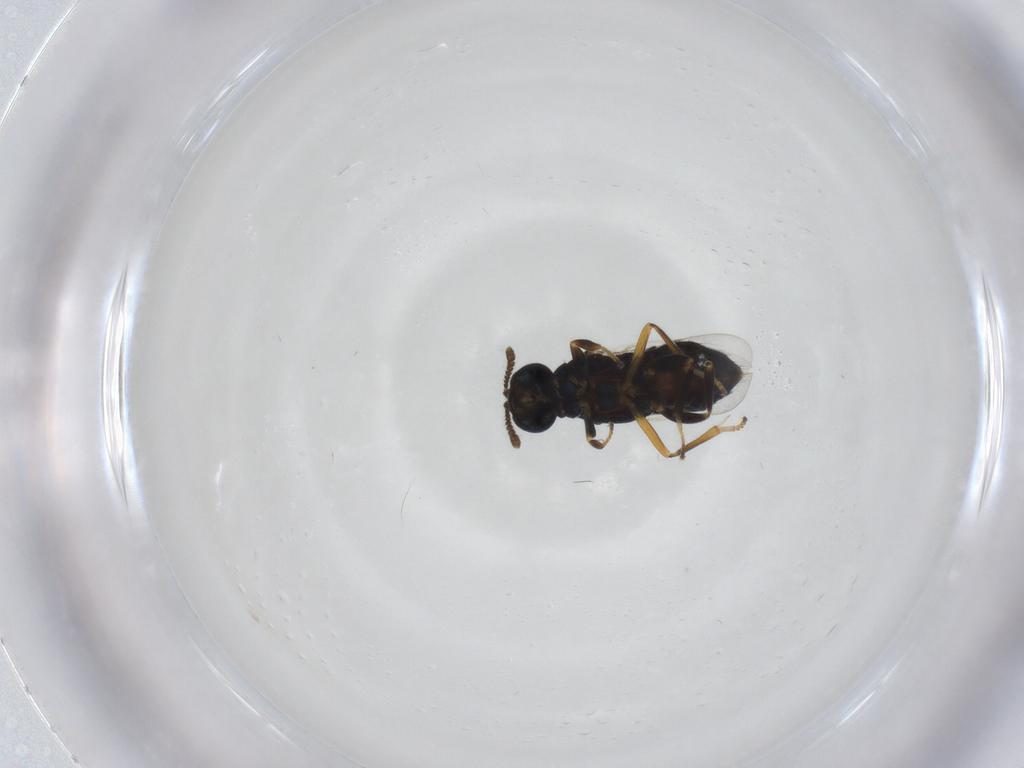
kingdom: Animalia
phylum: Arthropoda
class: Insecta
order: Hymenoptera
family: Encyrtidae
